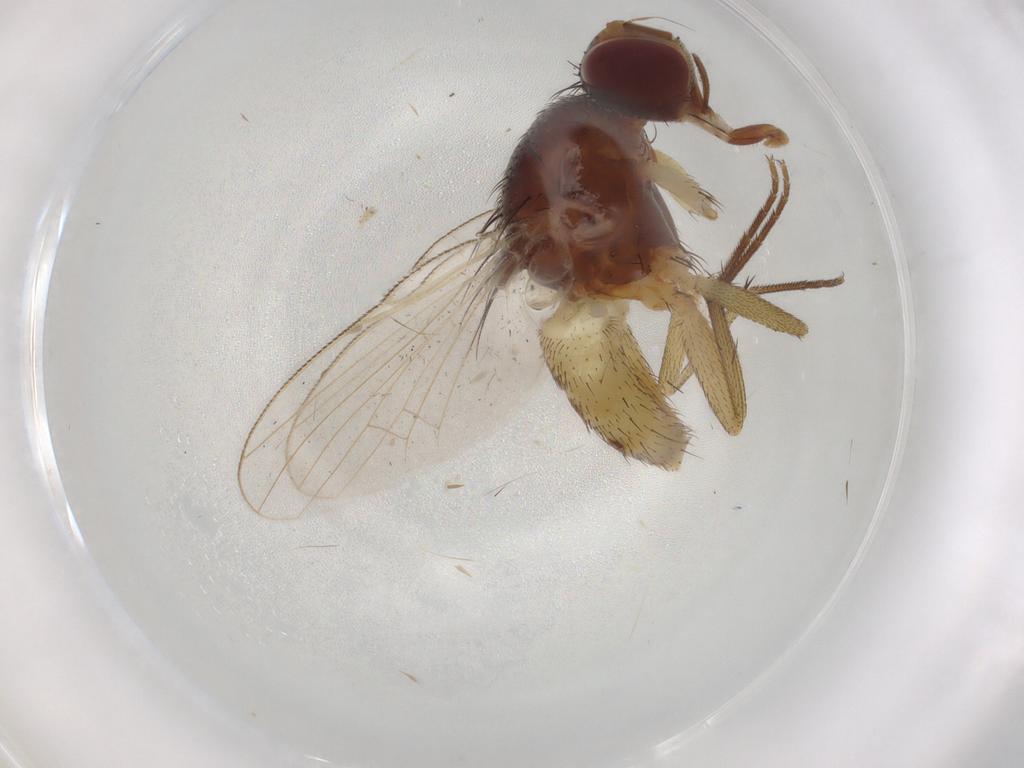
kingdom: Animalia
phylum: Arthropoda
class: Insecta
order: Diptera
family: Muscidae
